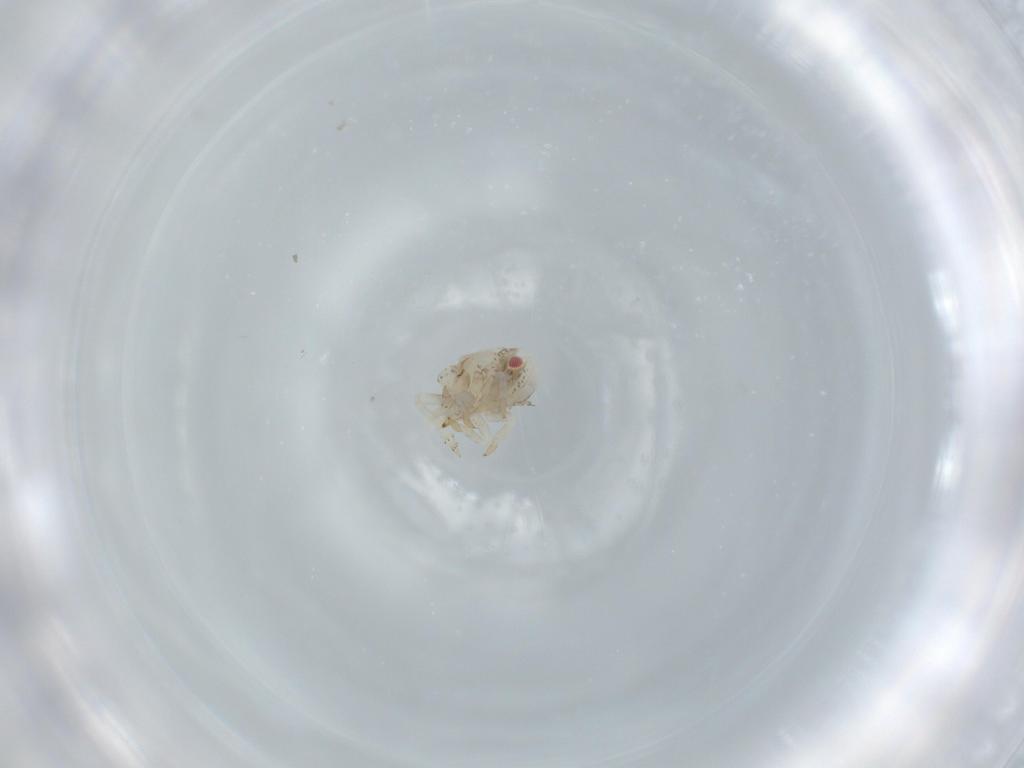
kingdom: Animalia
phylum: Arthropoda
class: Insecta
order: Hemiptera
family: Acanaloniidae
